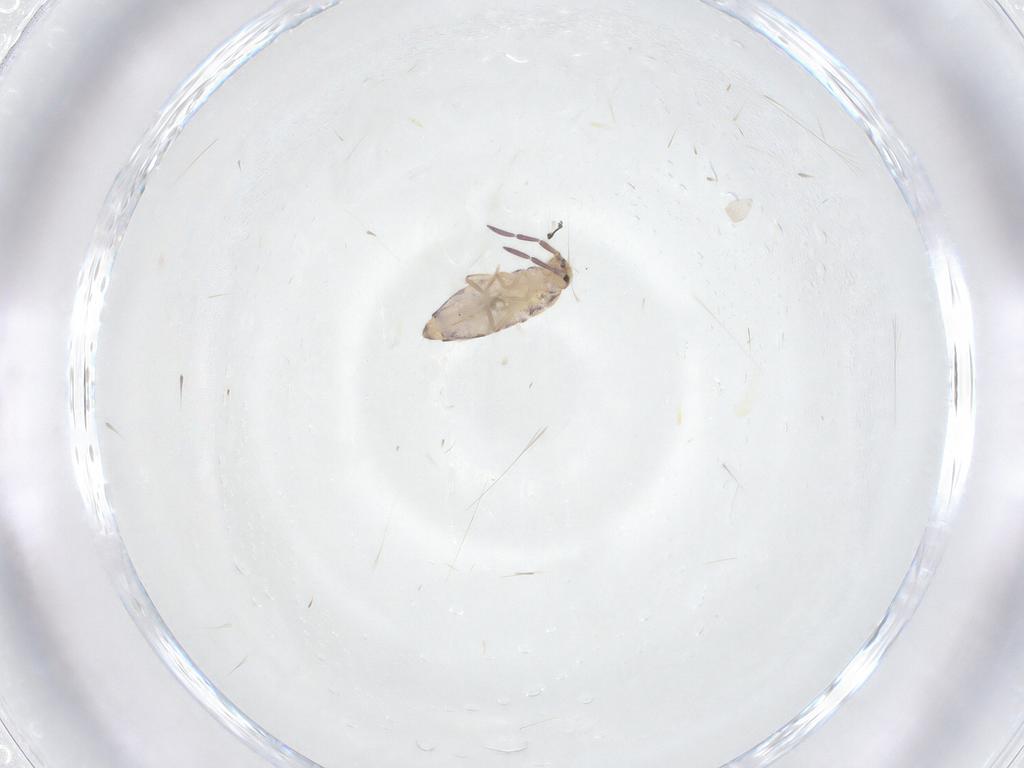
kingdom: Animalia
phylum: Arthropoda
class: Collembola
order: Entomobryomorpha
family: Entomobryidae
